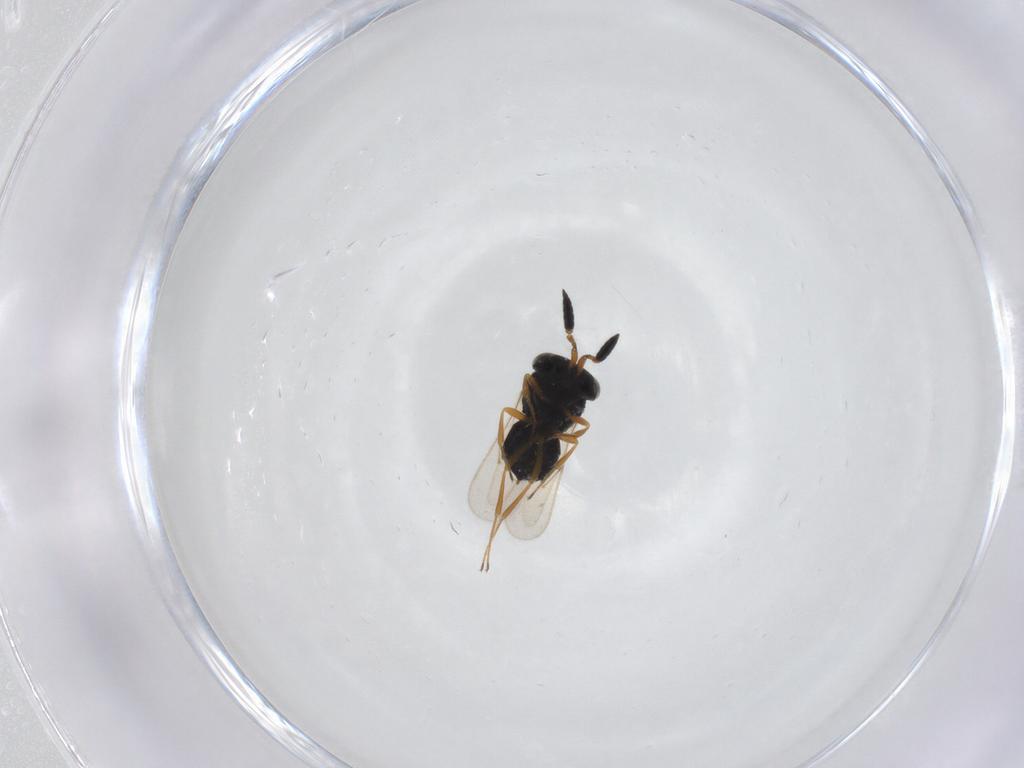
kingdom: Animalia
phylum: Arthropoda
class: Insecta
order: Hymenoptera
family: Scelionidae
